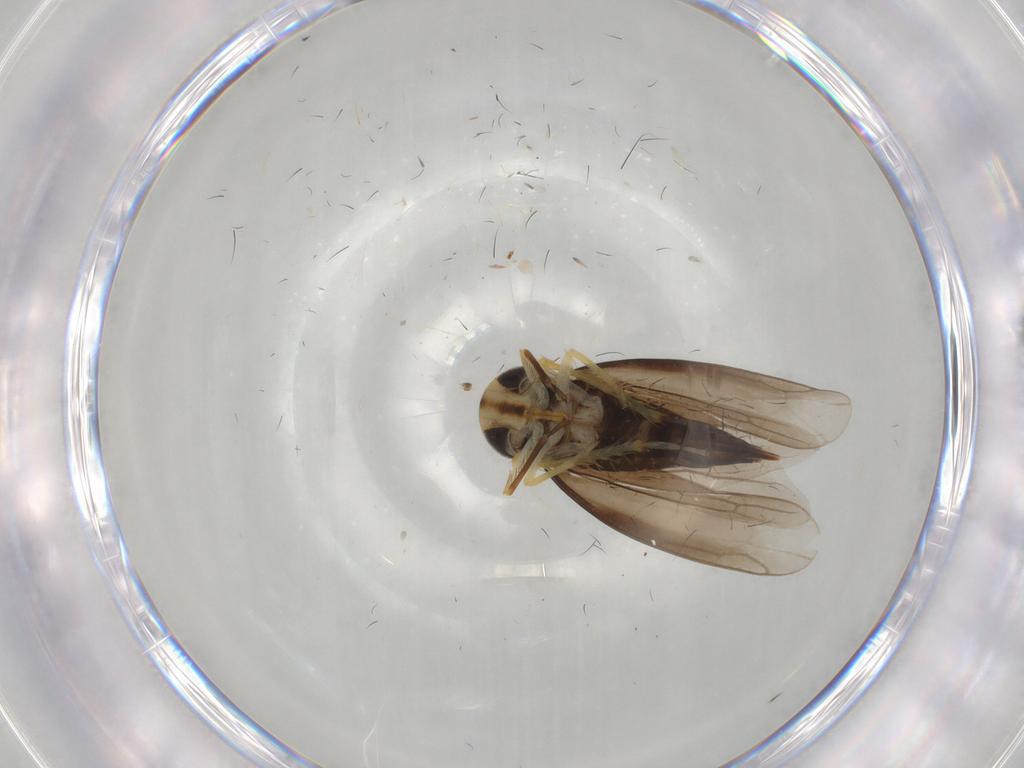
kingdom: Animalia
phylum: Arthropoda
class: Insecta
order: Hemiptera
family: Cicadellidae
